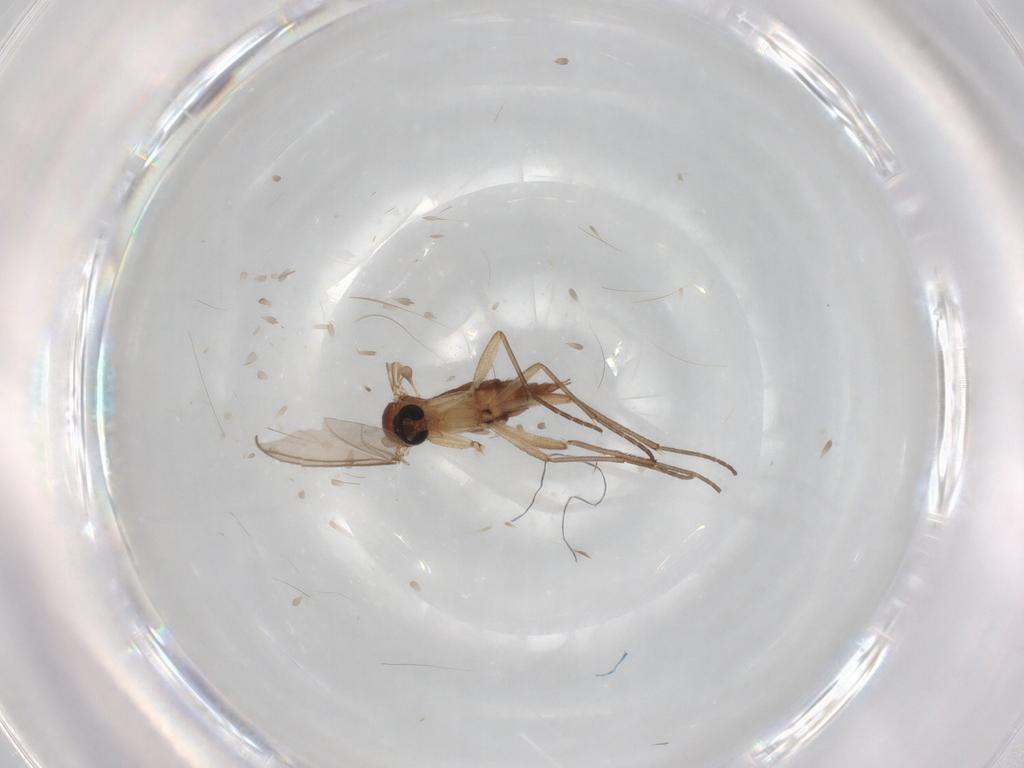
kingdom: Animalia
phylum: Arthropoda
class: Insecta
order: Diptera
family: Sciaridae
